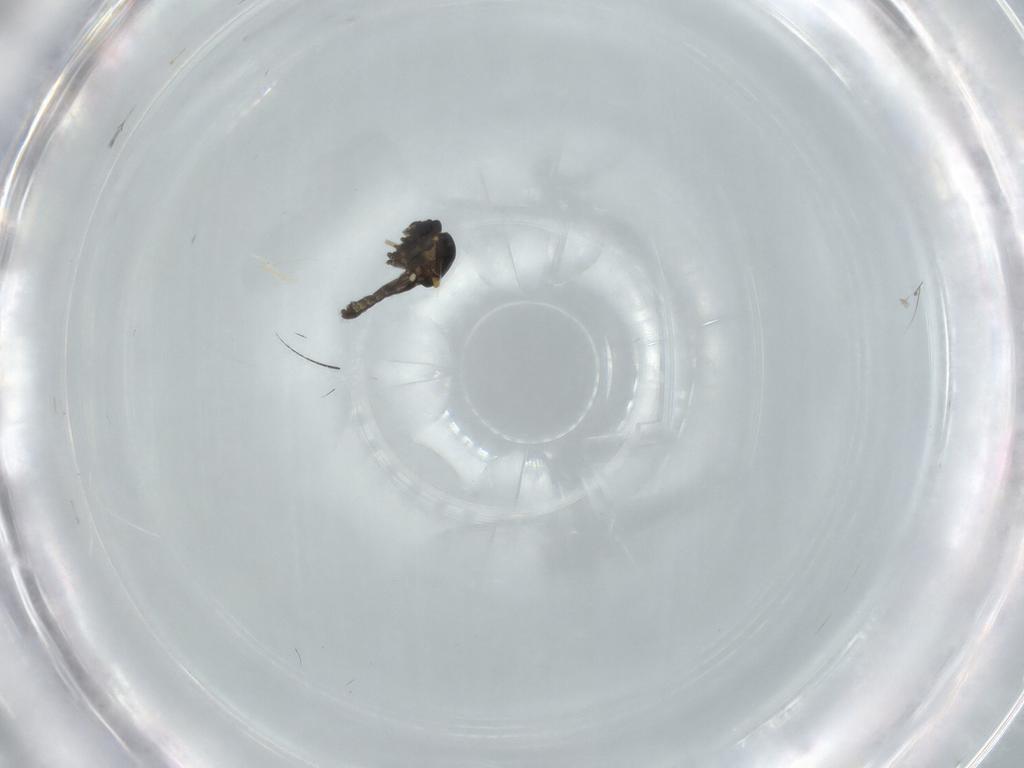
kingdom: Animalia
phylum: Arthropoda
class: Insecta
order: Diptera
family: Ceratopogonidae
